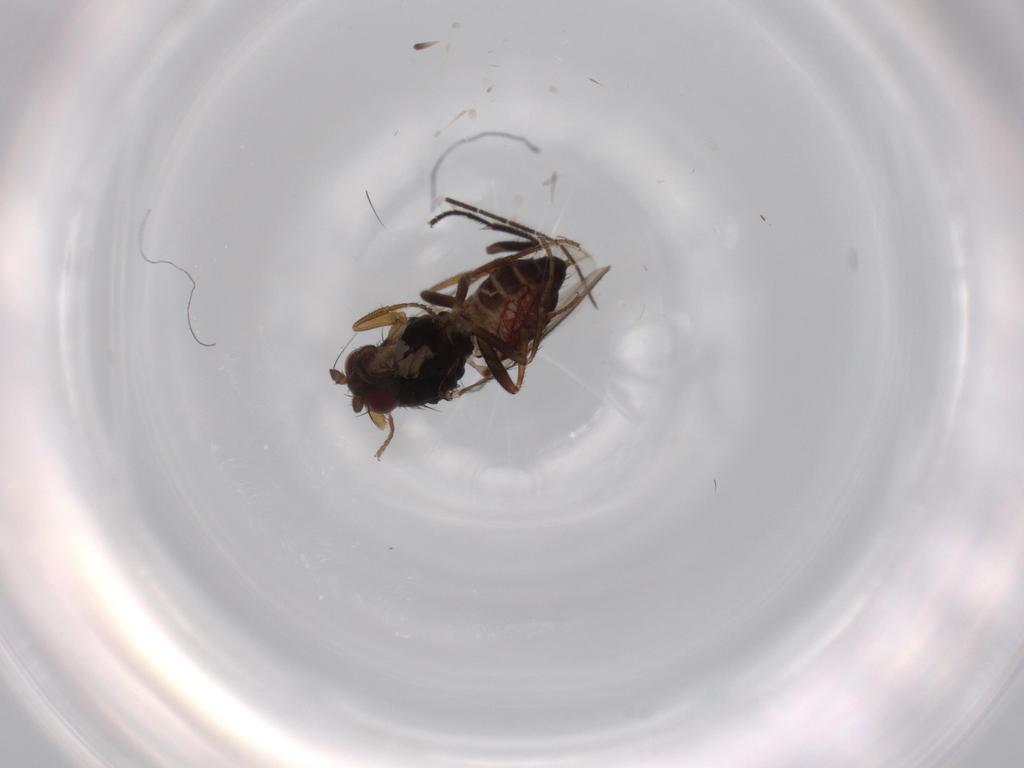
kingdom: Animalia
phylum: Arthropoda
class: Insecta
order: Diptera
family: Sphaeroceridae
